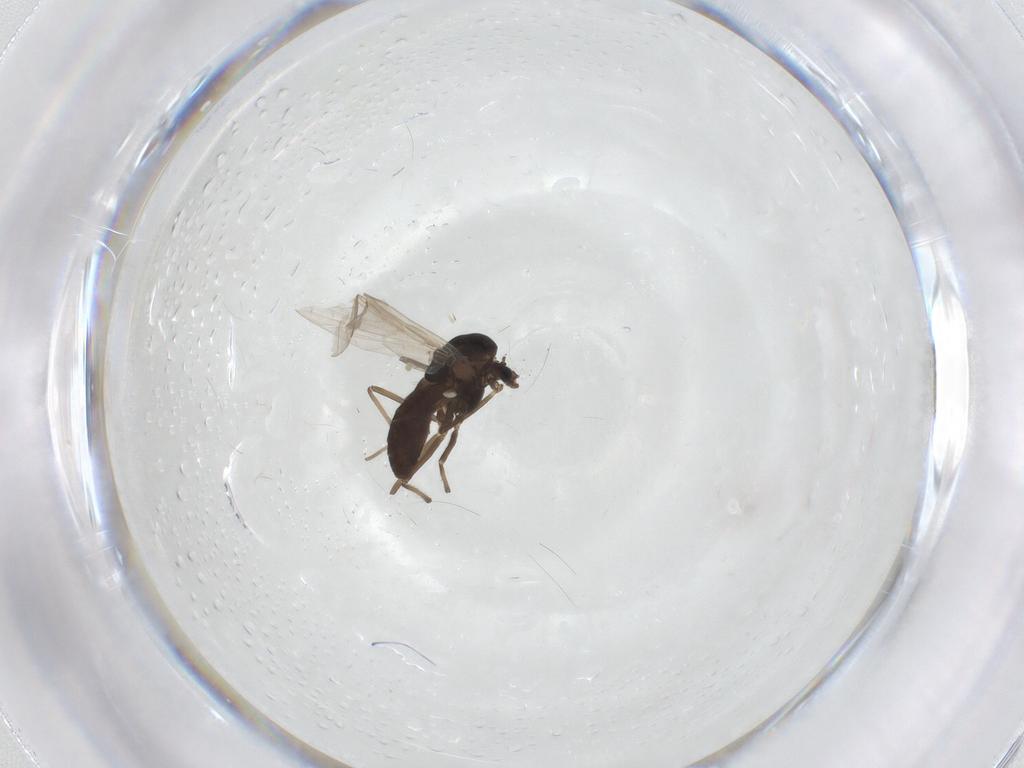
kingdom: Animalia
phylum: Arthropoda
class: Insecta
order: Diptera
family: Chironomidae
